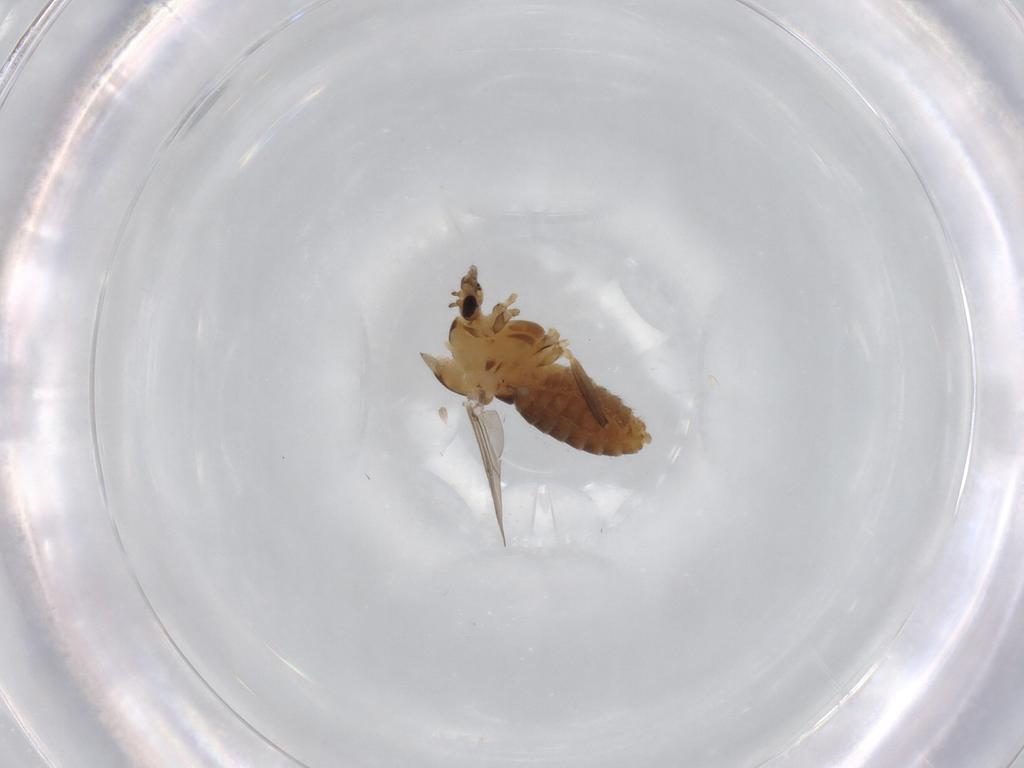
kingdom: Animalia
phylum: Arthropoda
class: Insecta
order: Diptera
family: Chironomidae
